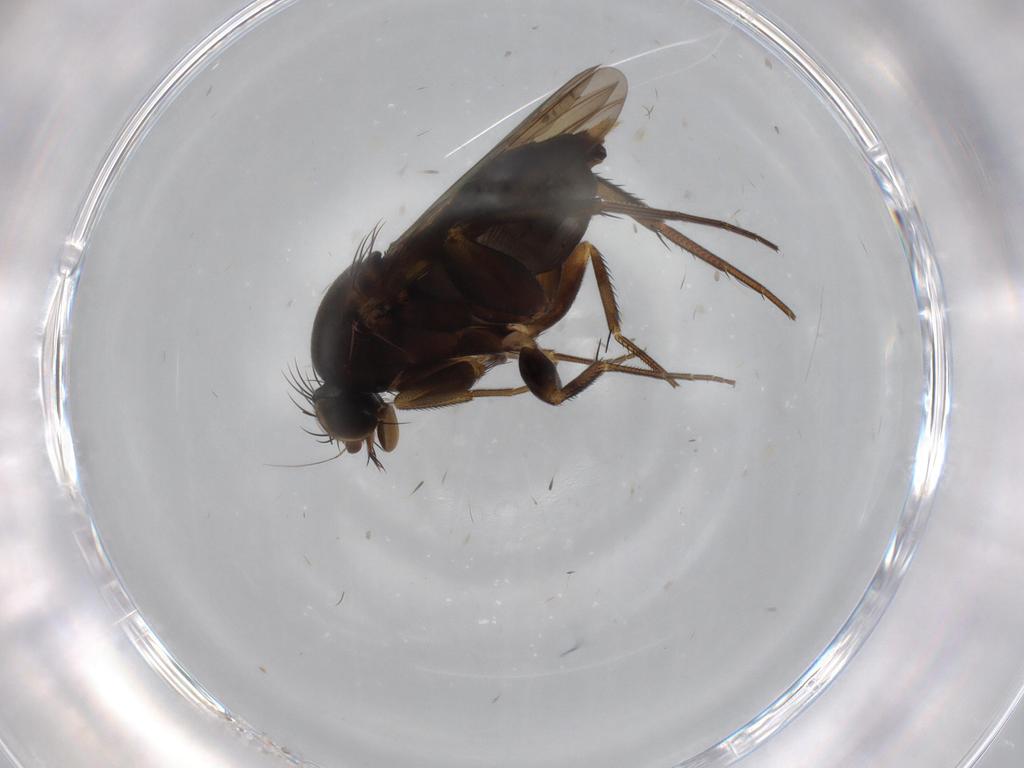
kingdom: Animalia
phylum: Arthropoda
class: Insecta
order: Diptera
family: Phoridae
